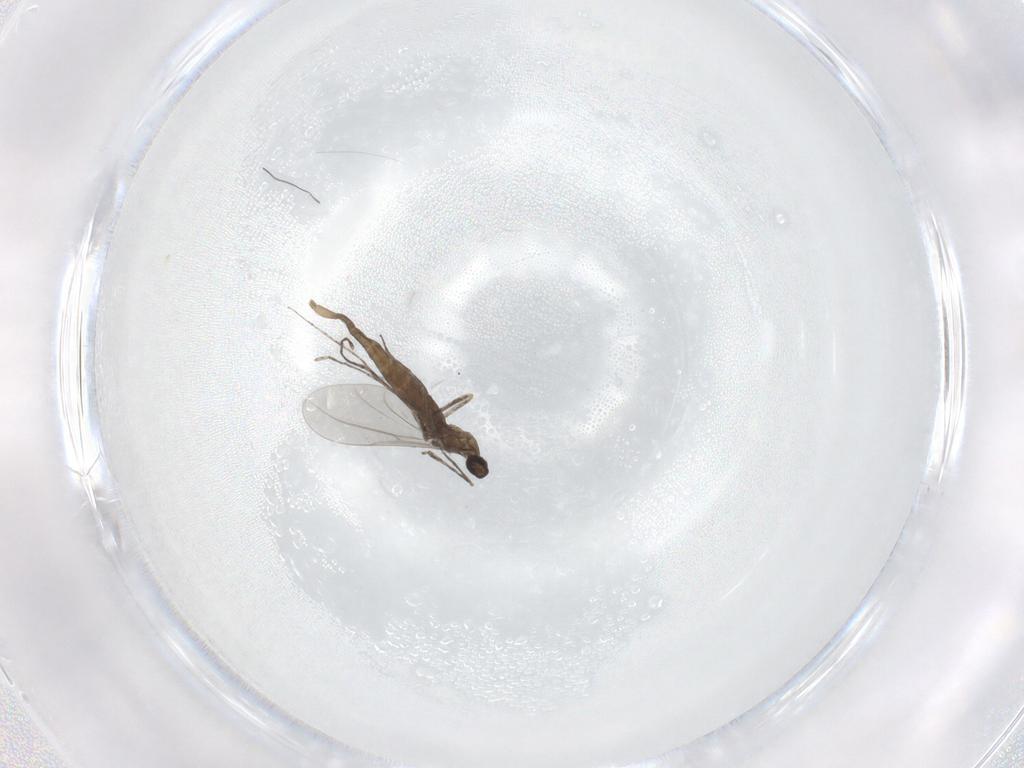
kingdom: Animalia
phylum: Arthropoda
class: Insecta
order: Diptera
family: Cecidomyiidae
